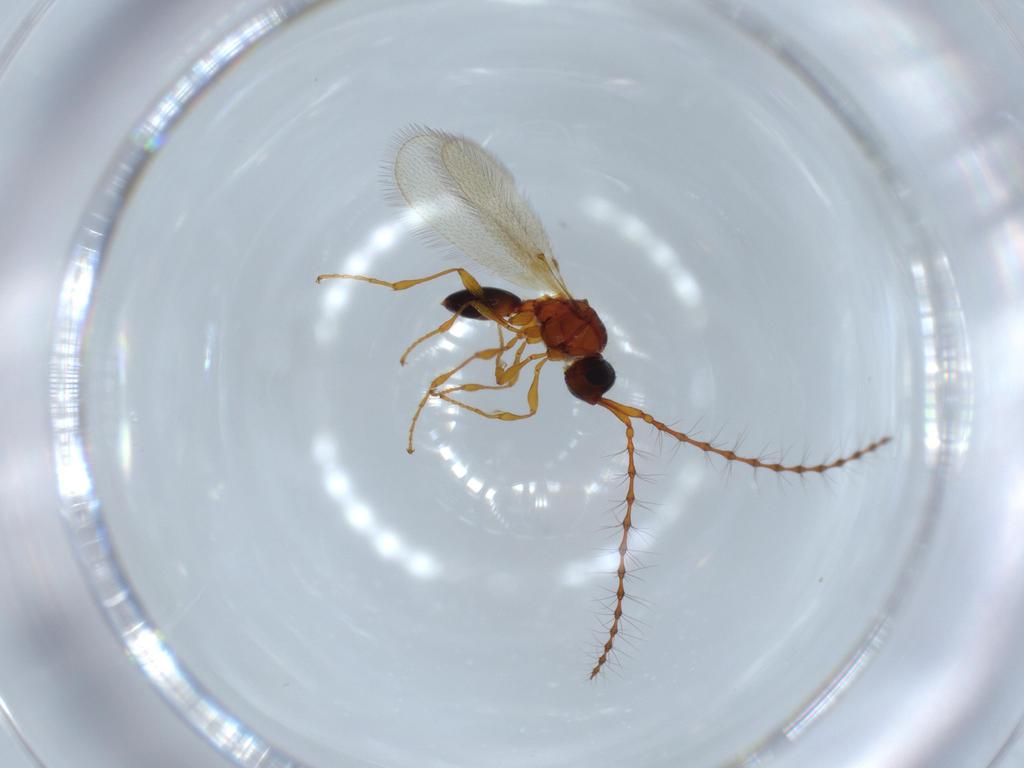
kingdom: Animalia
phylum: Arthropoda
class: Insecta
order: Hymenoptera
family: Diapriidae
